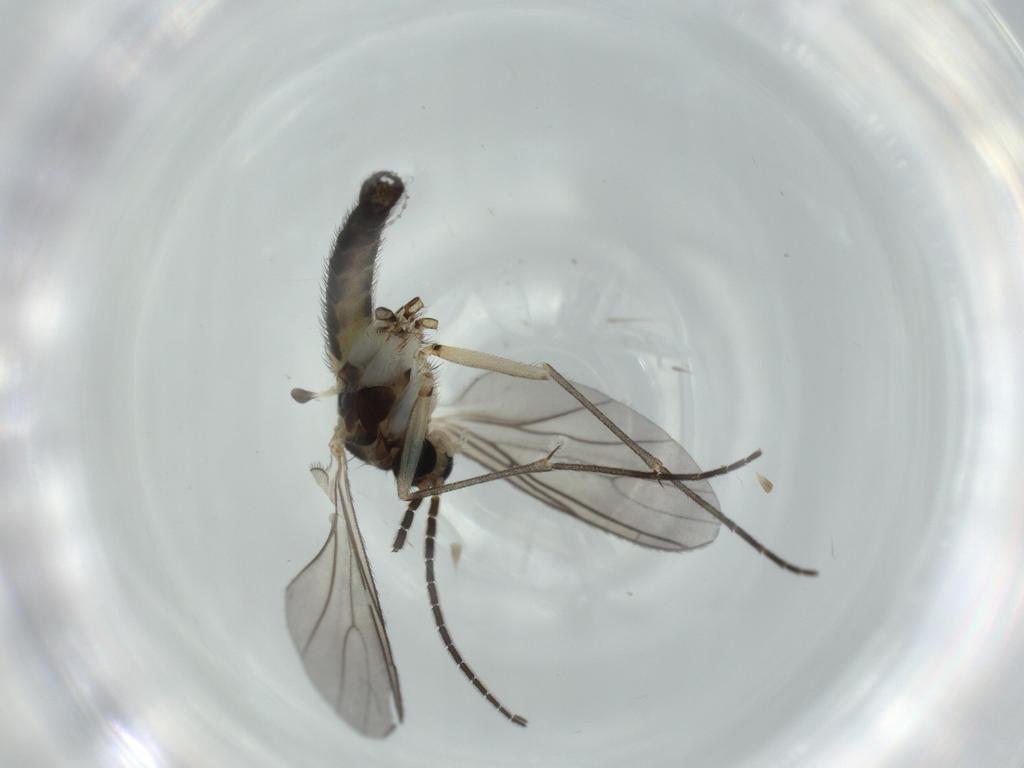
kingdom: Animalia
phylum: Arthropoda
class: Insecta
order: Diptera
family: Sciaridae
